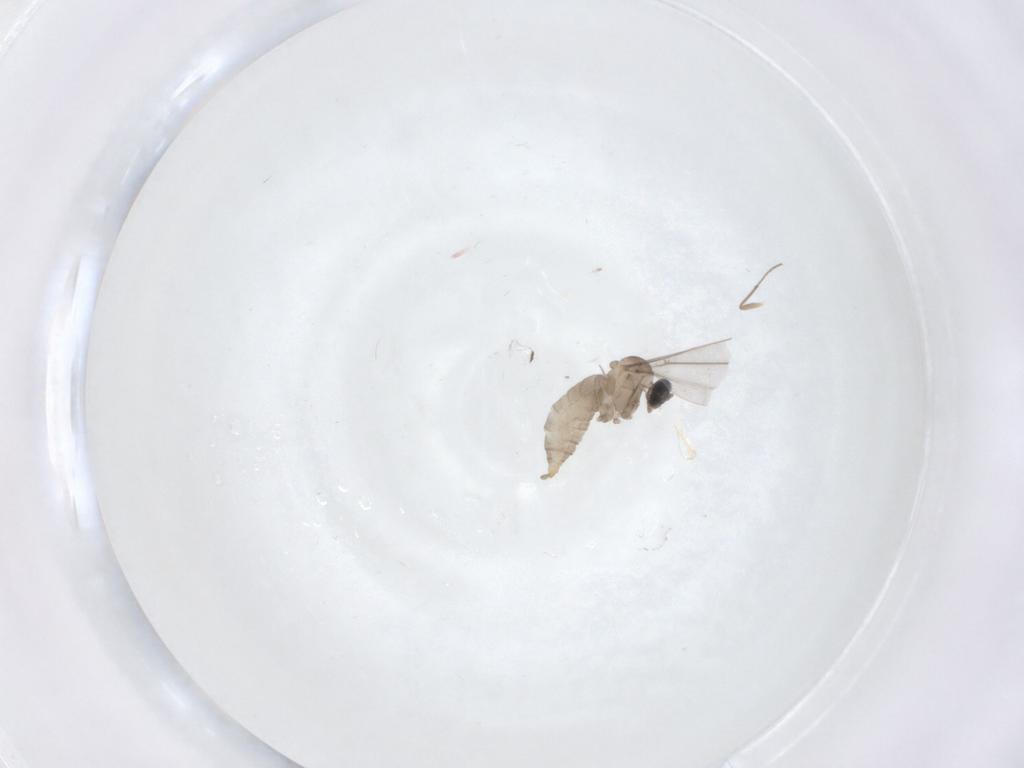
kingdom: Animalia
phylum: Arthropoda
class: Insecta
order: Diptera
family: Cecidomyiidae
